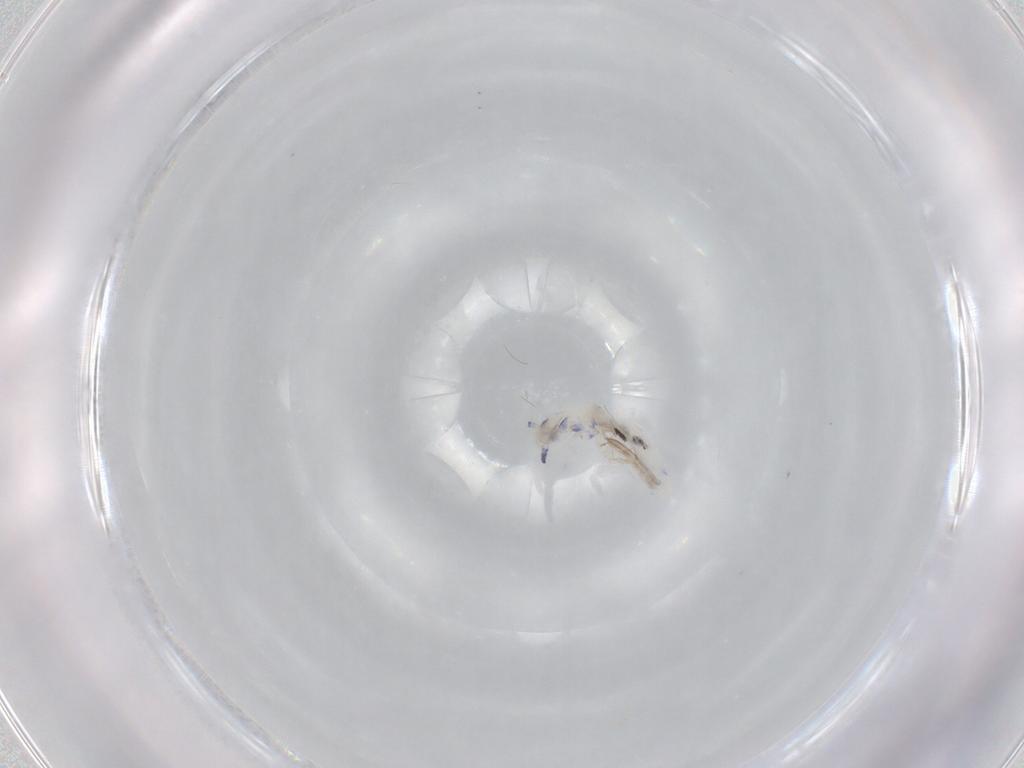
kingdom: Animalia
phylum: Arthropoda
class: Collembola
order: Entomobryomorpha
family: Entomobryidae
